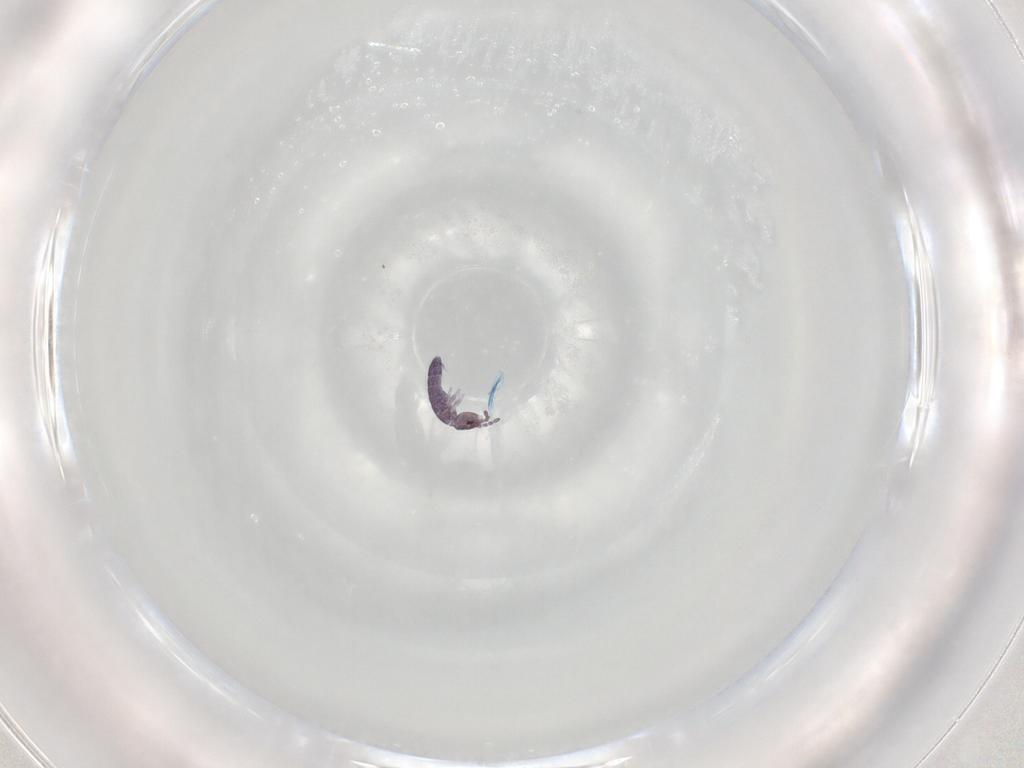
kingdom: Animalia
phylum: Arthropoda
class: Collembola
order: Entomobryomorpha
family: Isotomidae
